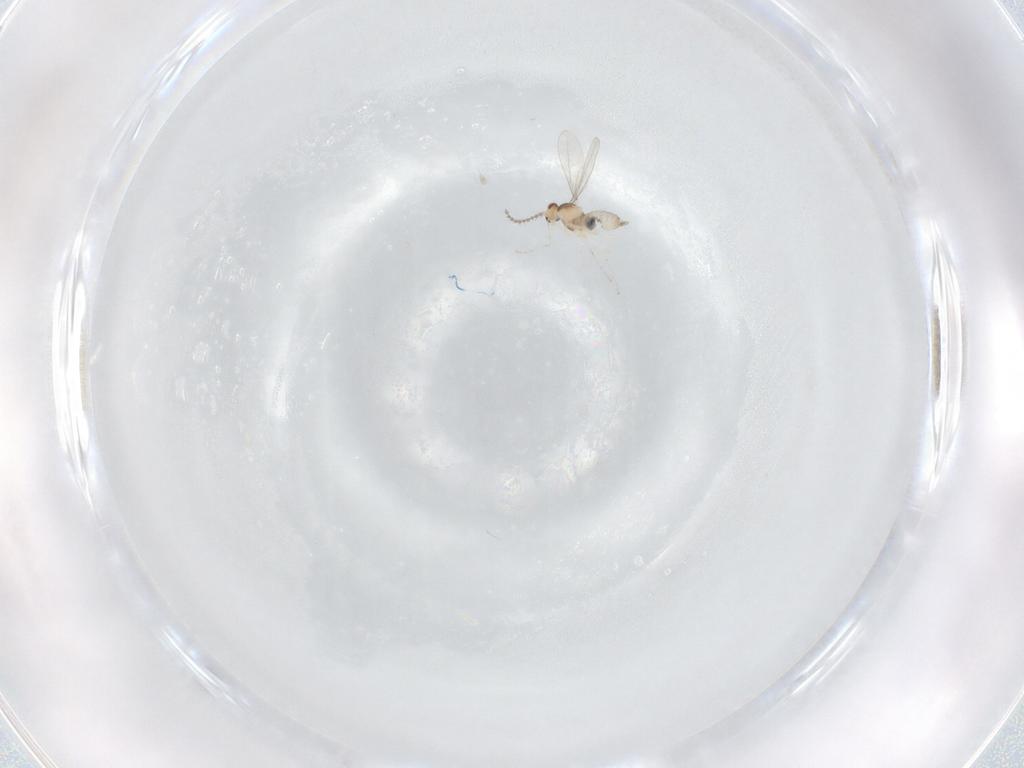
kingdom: Animalia
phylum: Arthropoda
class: Insecta
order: Diptera
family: Cecidomyiidae
